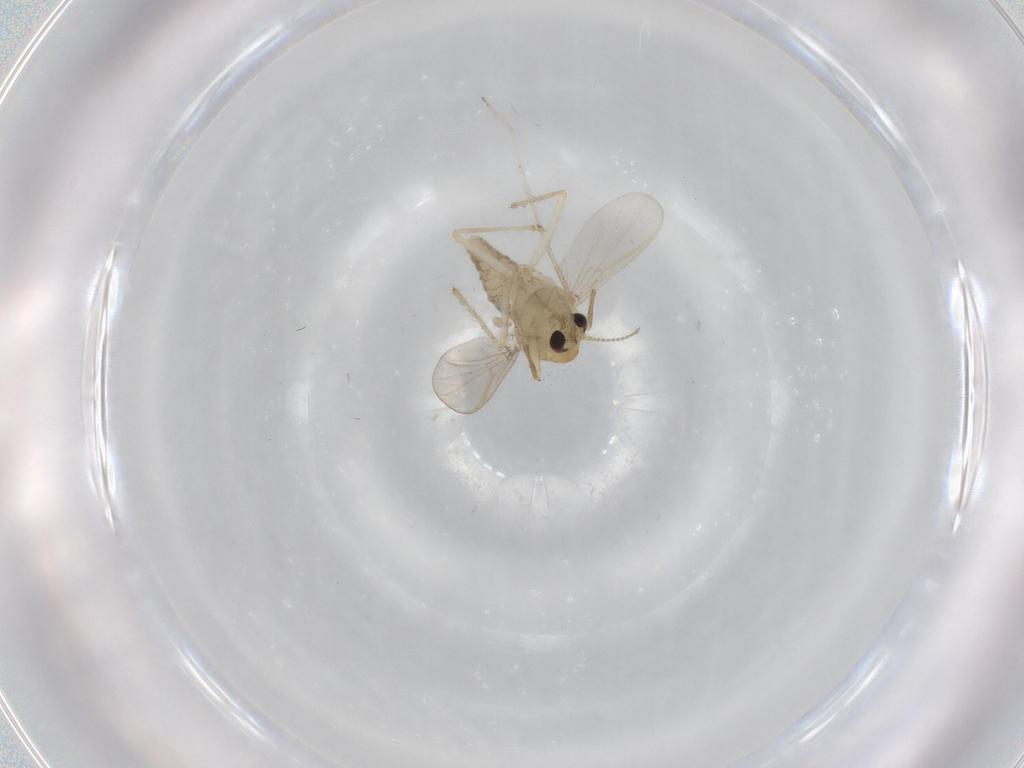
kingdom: Animalia
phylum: Arthropoda
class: Insecta
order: Diptera
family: Chironomidae
